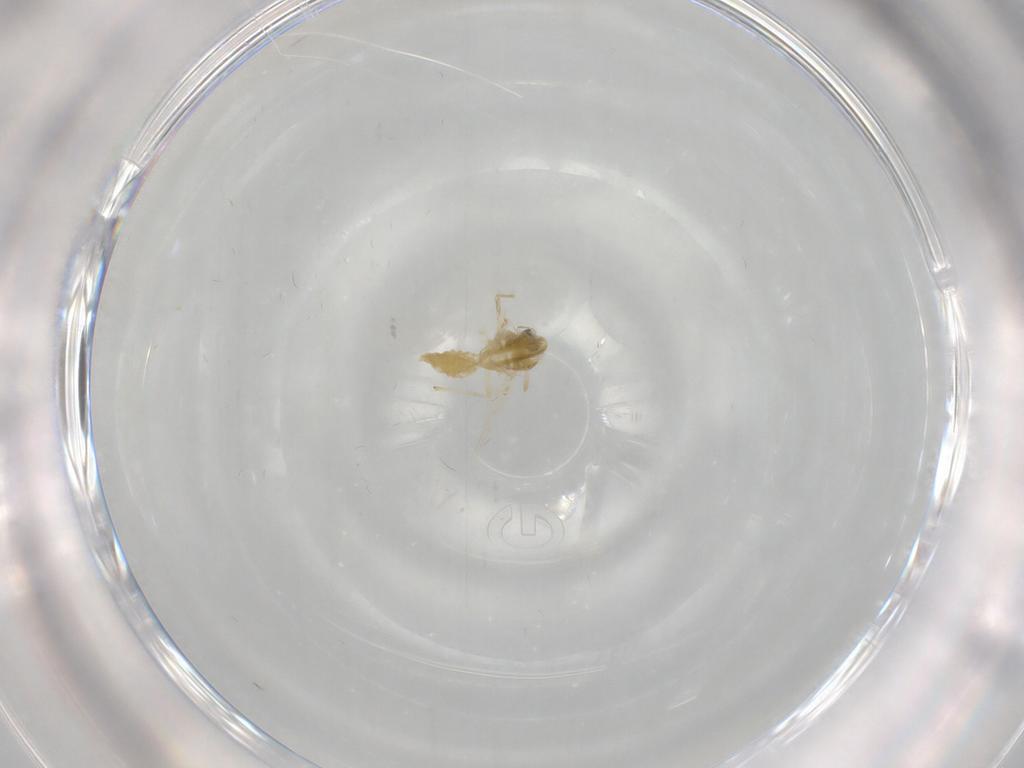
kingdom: Animalia
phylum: Arthropoda
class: Insecta
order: Diptera
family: Chironomidae
